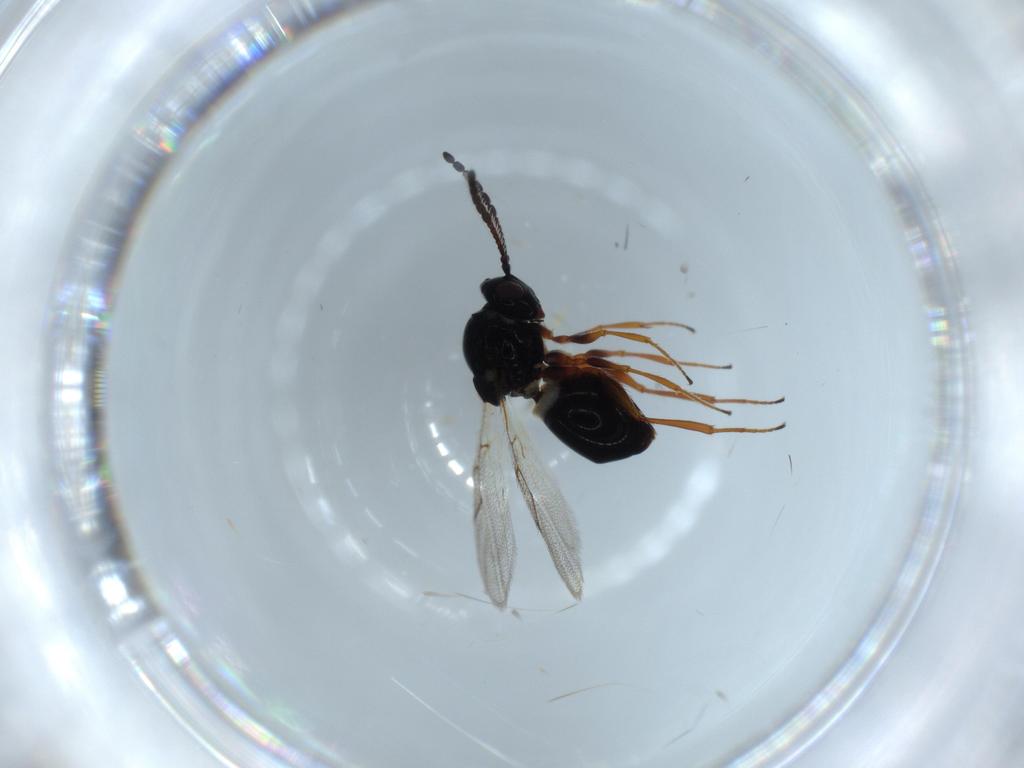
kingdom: Animalia
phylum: Arthropoda
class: Insecta
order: Hymenoptera
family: Figitidae
